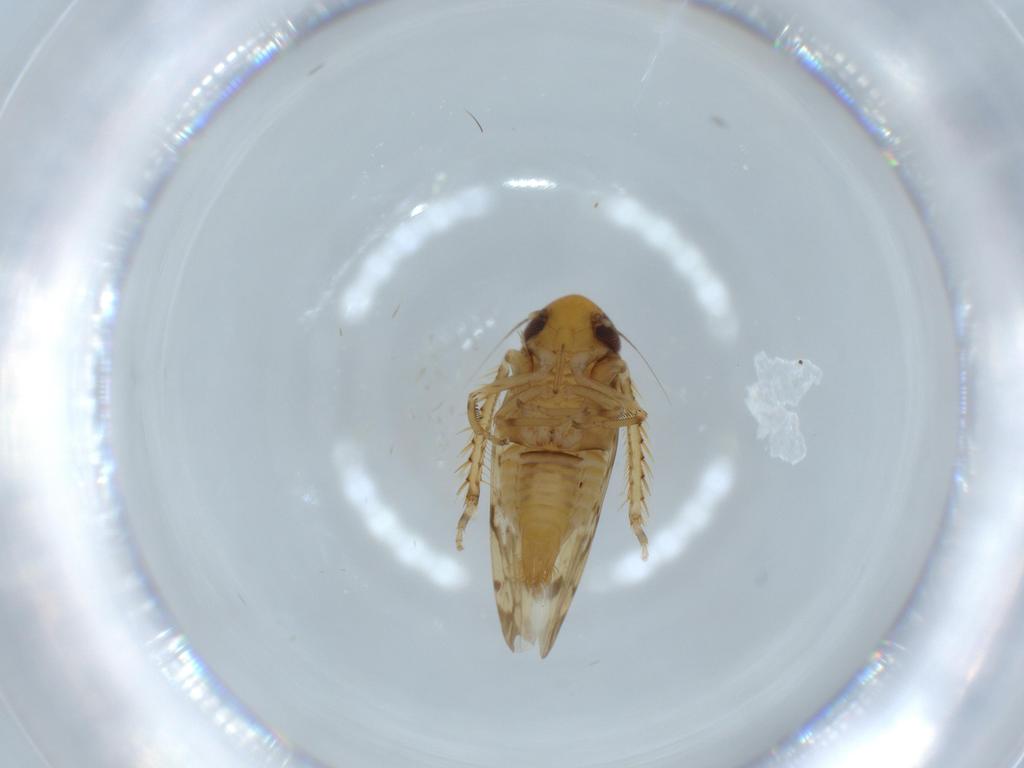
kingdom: Animalia
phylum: Arthropoda
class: Insecta
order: Hemiptera
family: Cicadellidae
